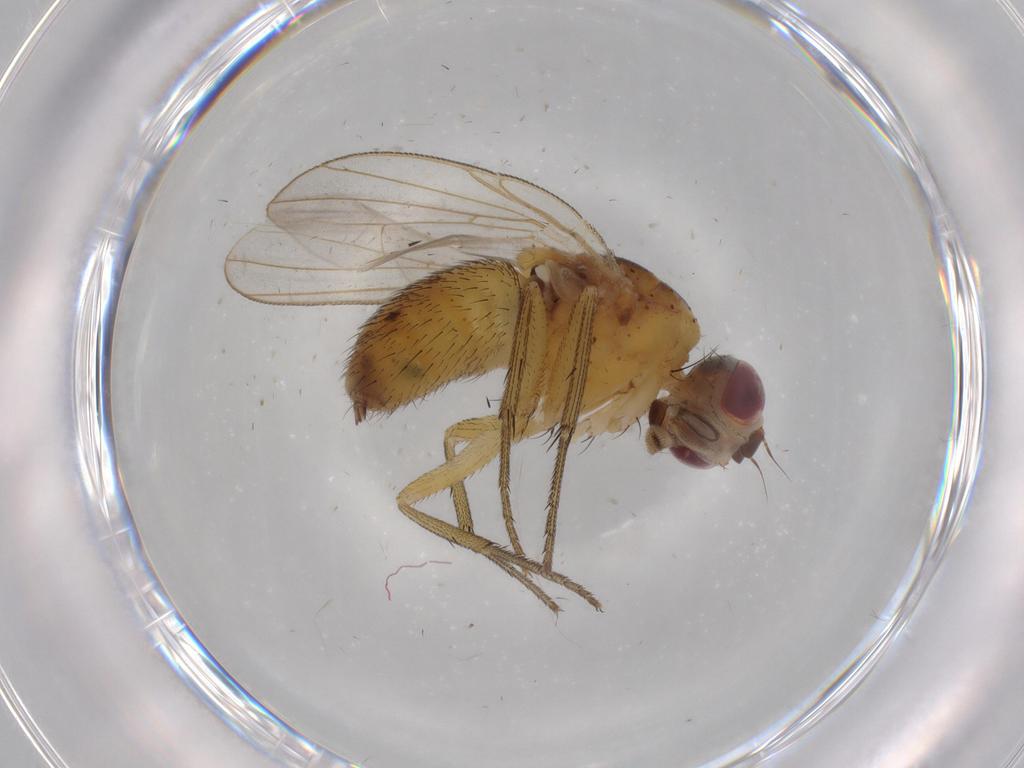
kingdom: Animalia
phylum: Arthropoda
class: Insecta
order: Diptera
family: Muscidae
